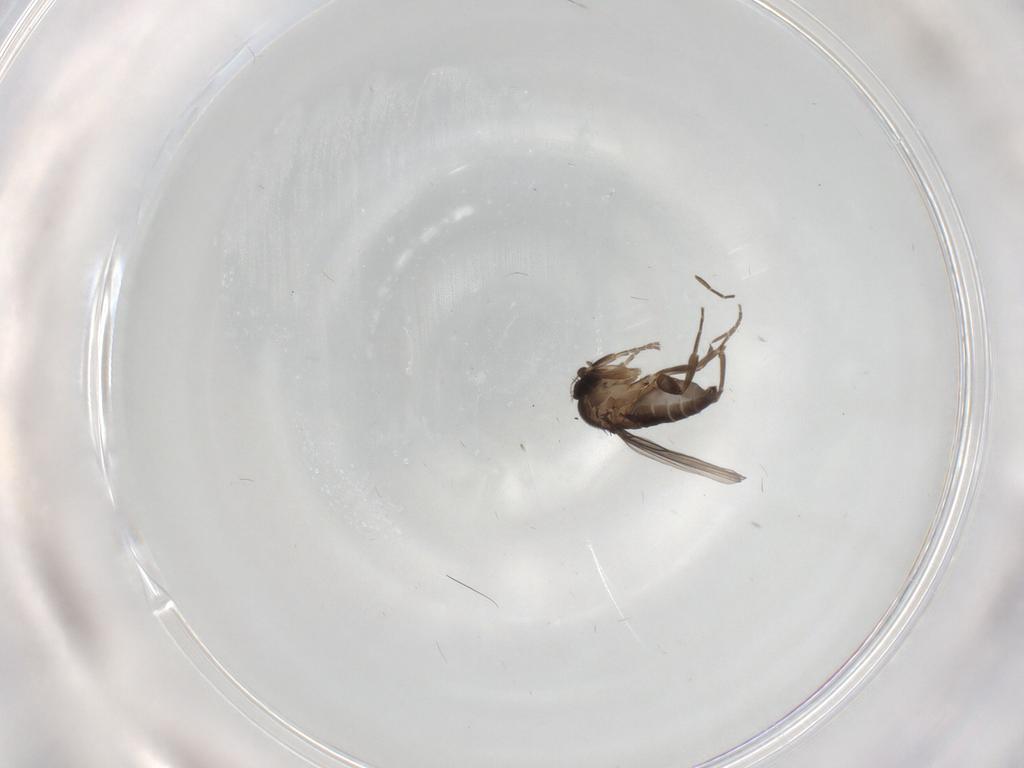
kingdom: Animalia
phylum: Arthropoda
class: Insecta
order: Diptera
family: Phoridae
